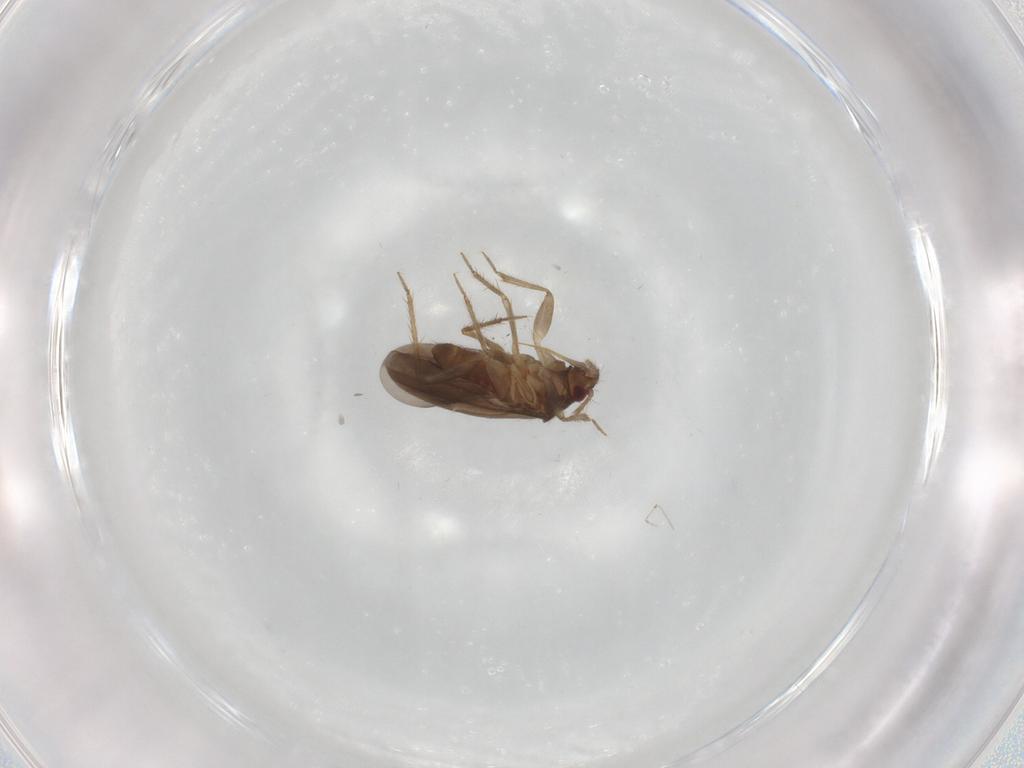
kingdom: Animalia
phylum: Arthropoda
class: Insecta
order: Hemiptera
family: Ceratocombidae
